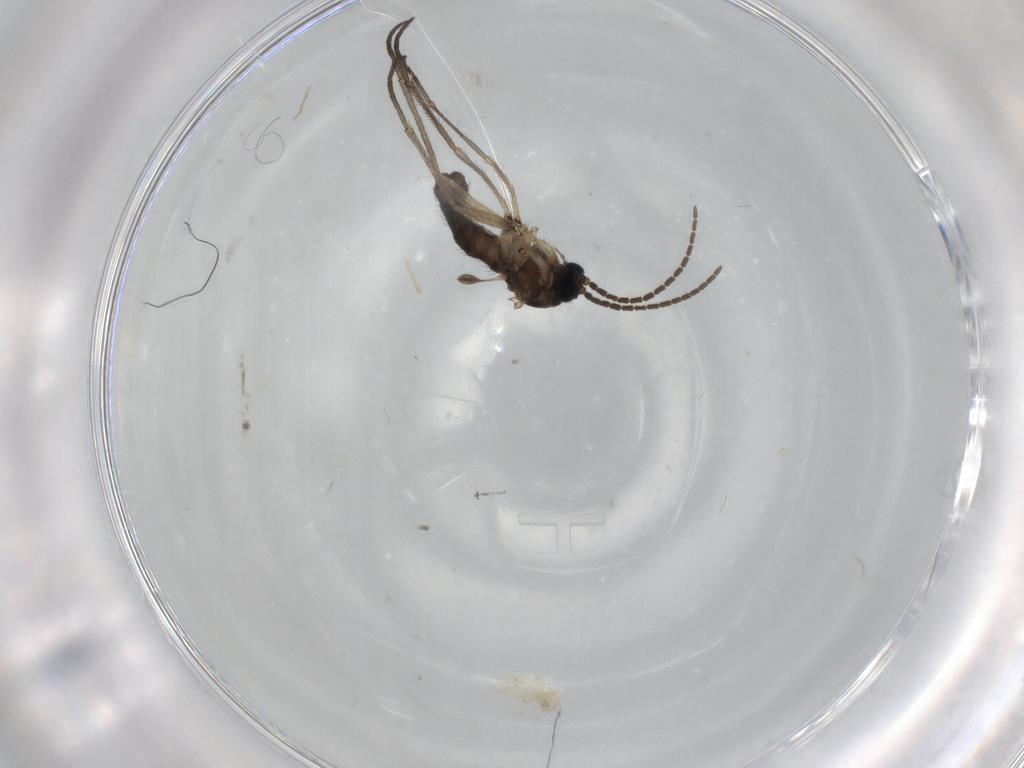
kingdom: Animalia
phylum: Arthropoda
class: Insecta
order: Diptera
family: Sciaridae
